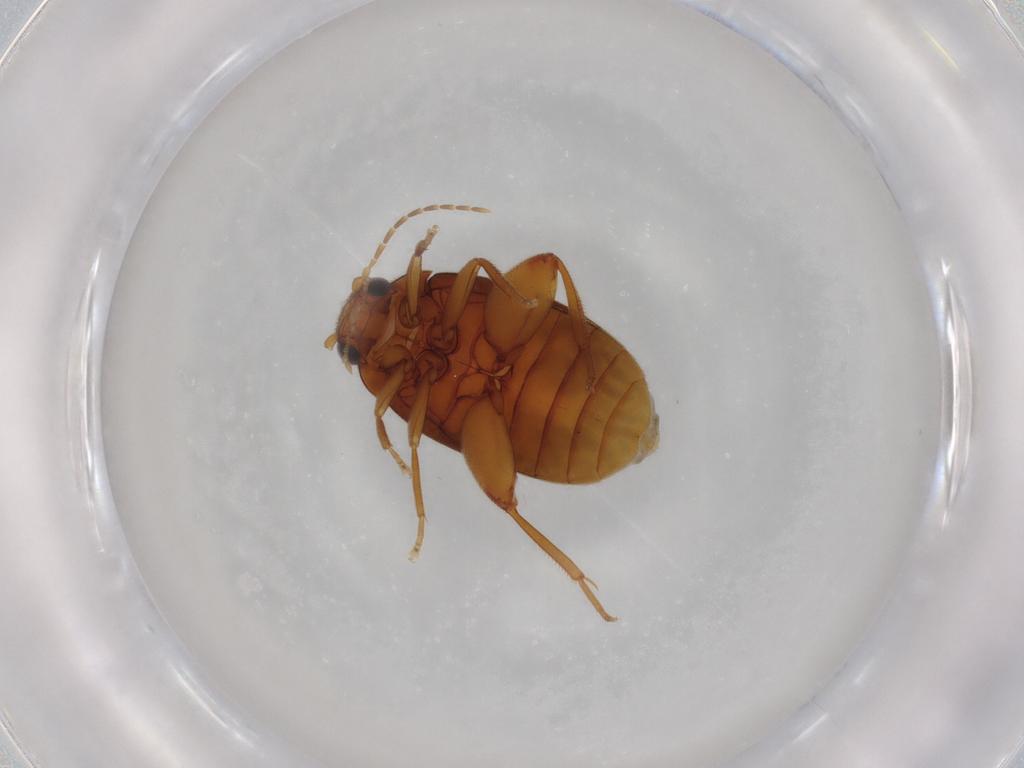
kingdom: Animalia
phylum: Arthropoda
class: Insecta
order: Coleoptera
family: Scirtidae
